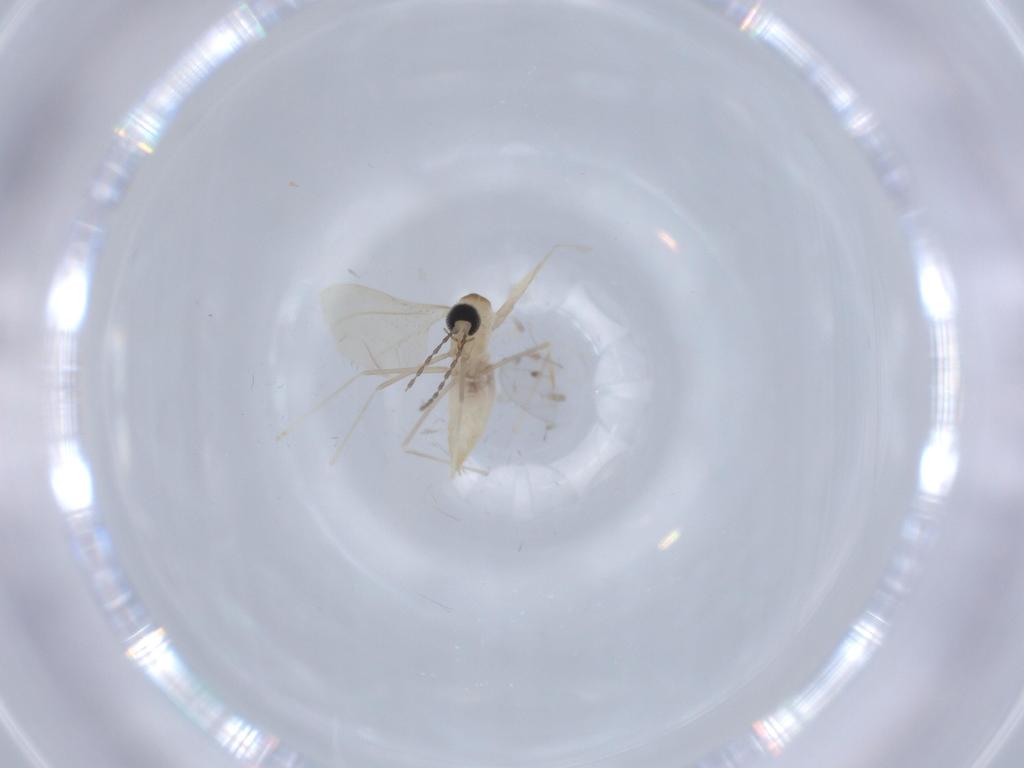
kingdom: Animalia
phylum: Arthropoda
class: Insecta
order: Diptera
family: Cecidomyiidae
